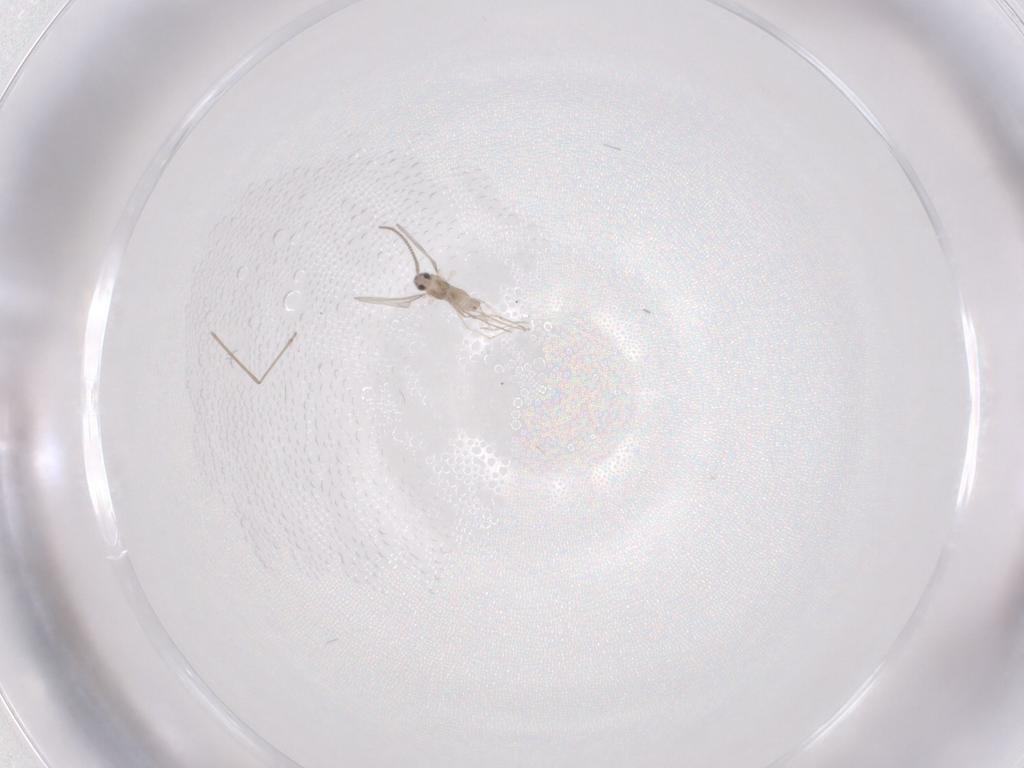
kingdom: Animalia
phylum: Arthropoda
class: Insecta
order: Diptera
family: Cecidomyiidae
